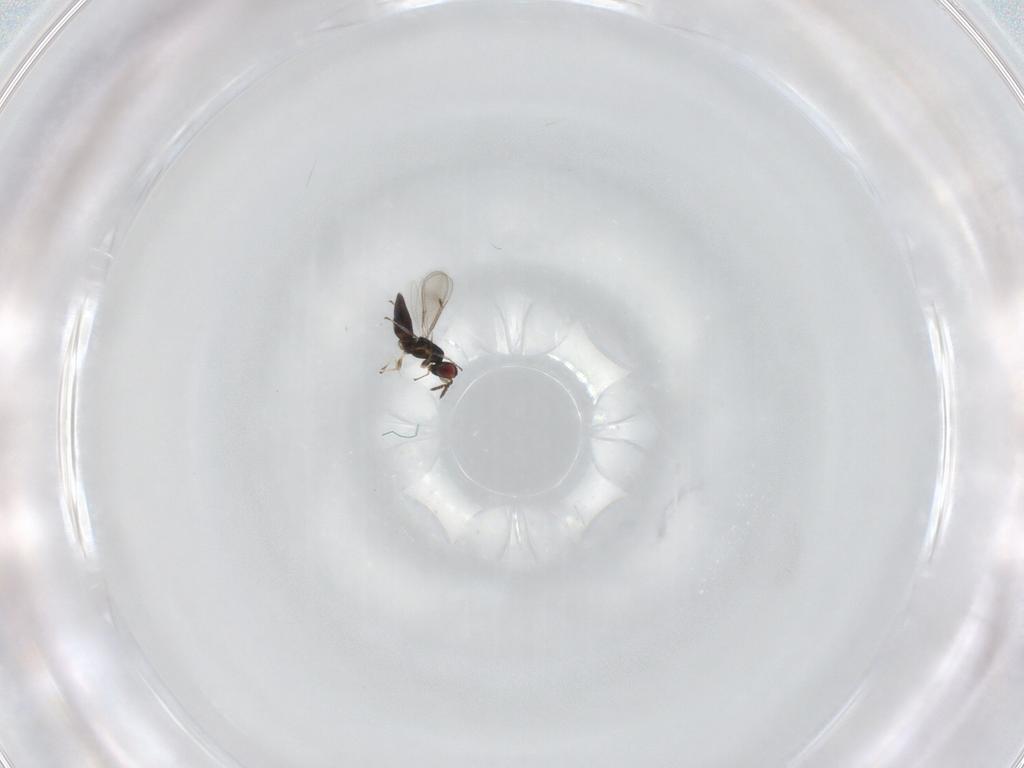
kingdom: Animalia
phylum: Arthropoda
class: Insecta
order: Hymenoptera
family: Eulophidae
